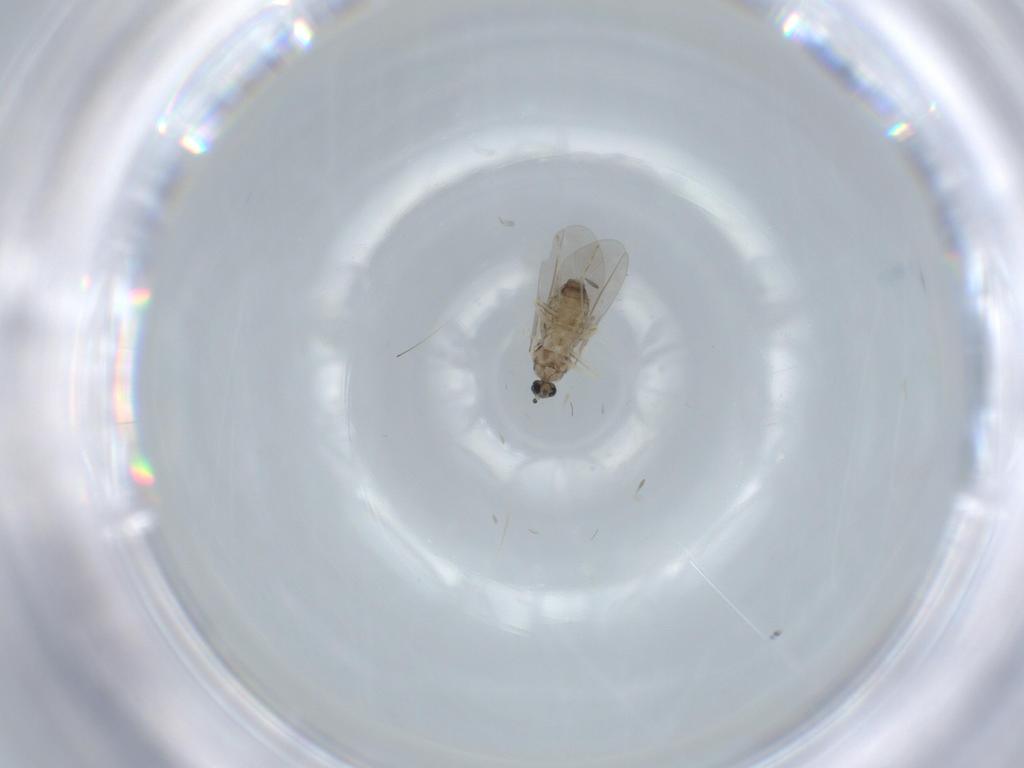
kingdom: Animalia
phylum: Arthropoda
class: Insecta
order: Diptera
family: Cecidomyiidae
